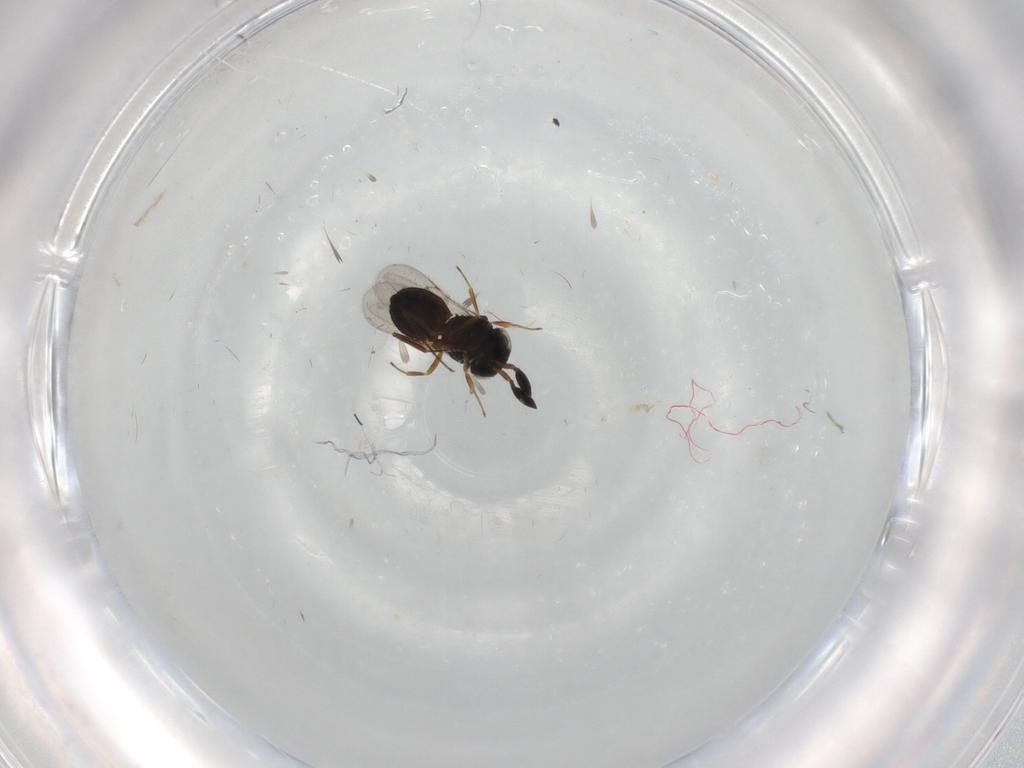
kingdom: Animalia
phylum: Arthropoda
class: Insecta
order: Hymenoptera
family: Scelionidae
